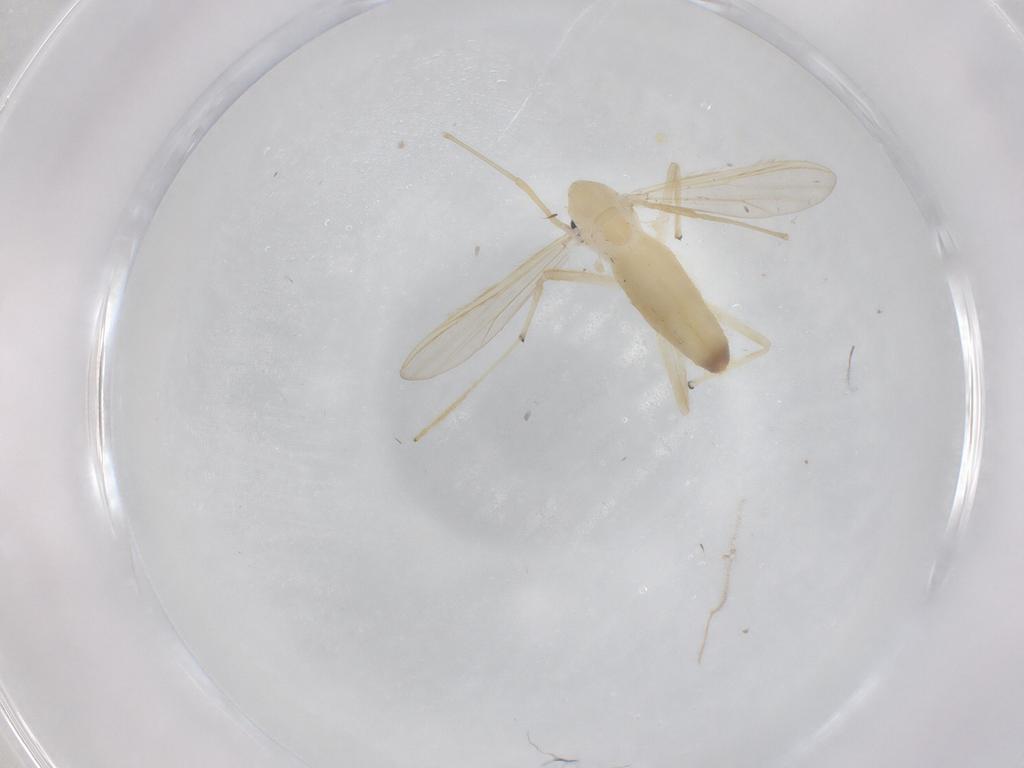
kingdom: Animalia
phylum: Arthropoda
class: Insecta
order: Diptera
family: Chironomidae
